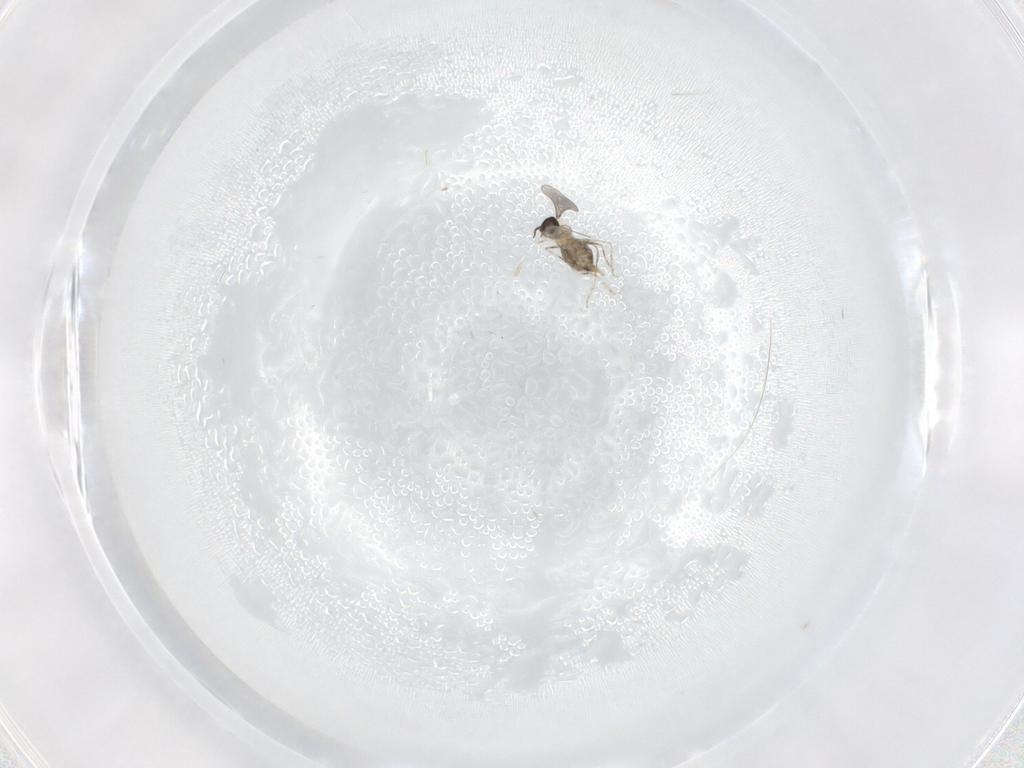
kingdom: Animalia
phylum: Arthropoda
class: Insecta
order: Diptera
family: Cecidomyiidae
